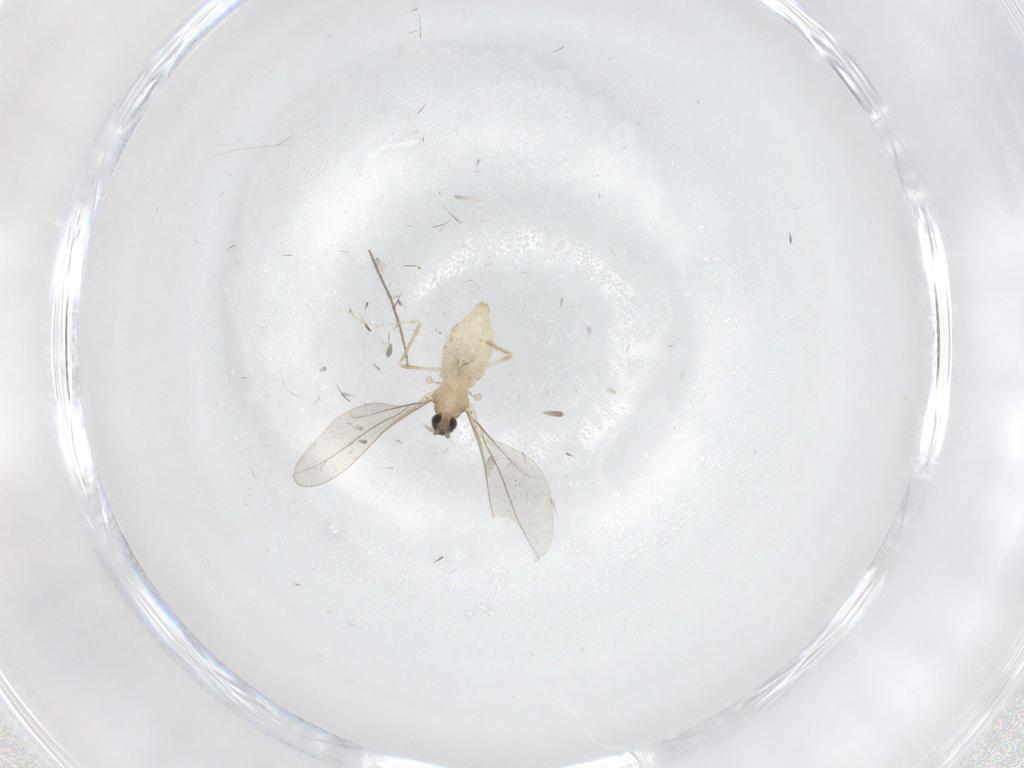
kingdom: Animalia
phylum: Arthropoda
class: Insecta
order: Diptera
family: Cecidomyiidae
